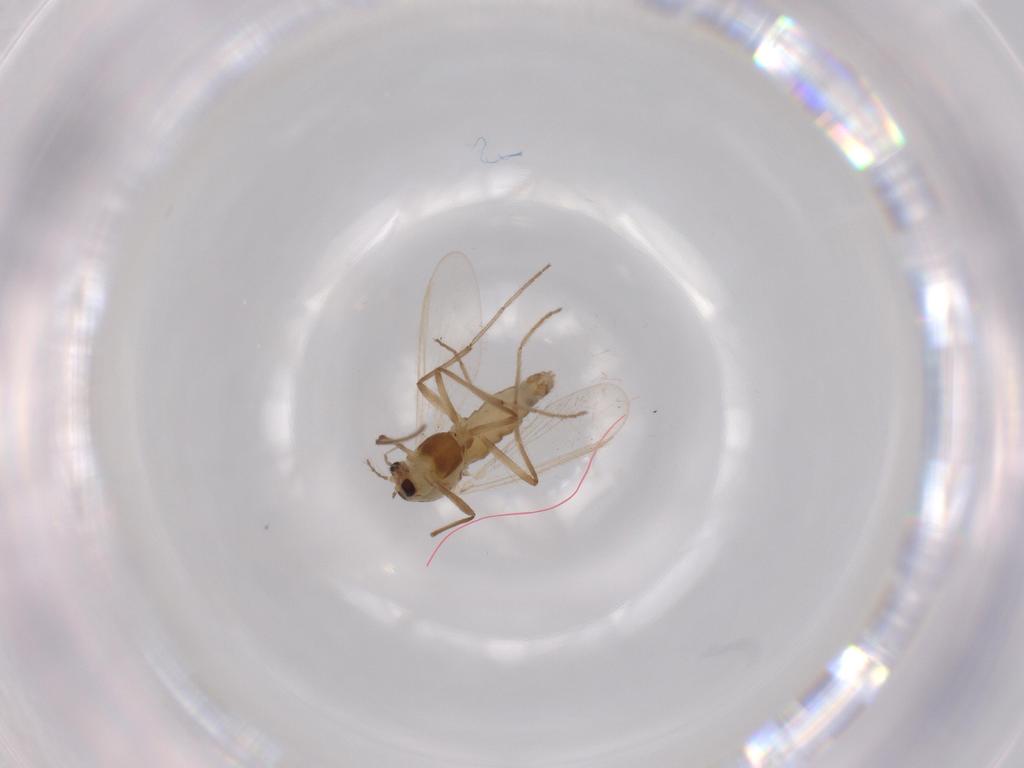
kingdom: Animalia
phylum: Arthropoda
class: Insecta
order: Diptera
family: Chironomidae
